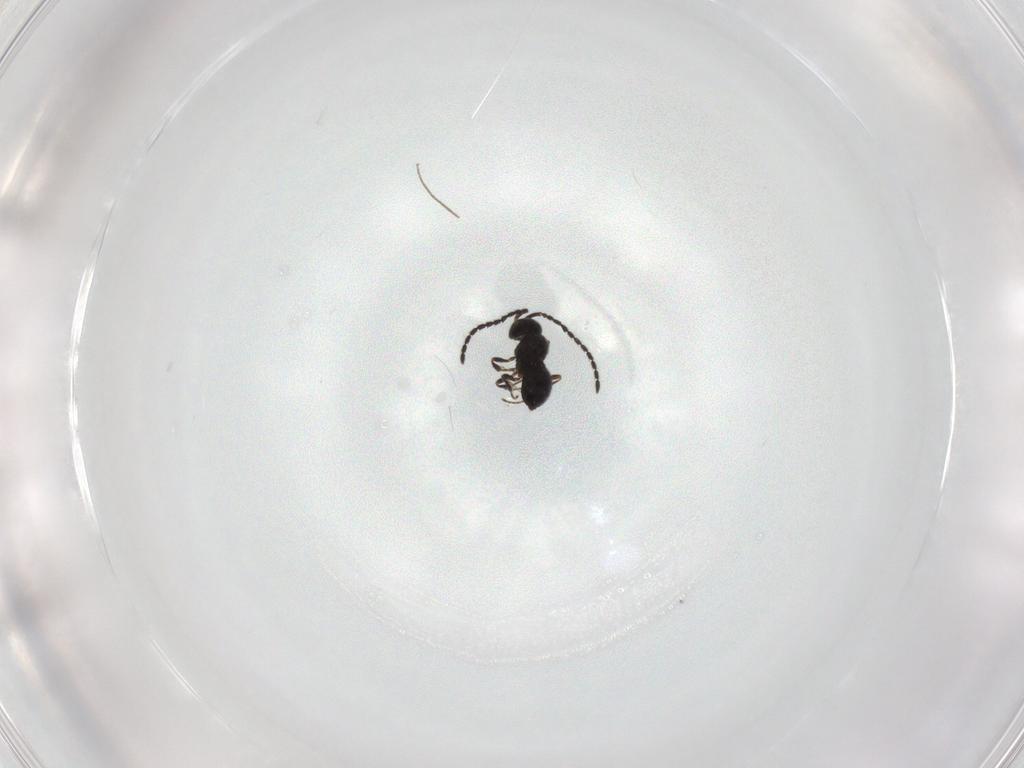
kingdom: Animalia
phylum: Arthropoda
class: Insecta
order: Hymenoptera
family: Scelionidae
